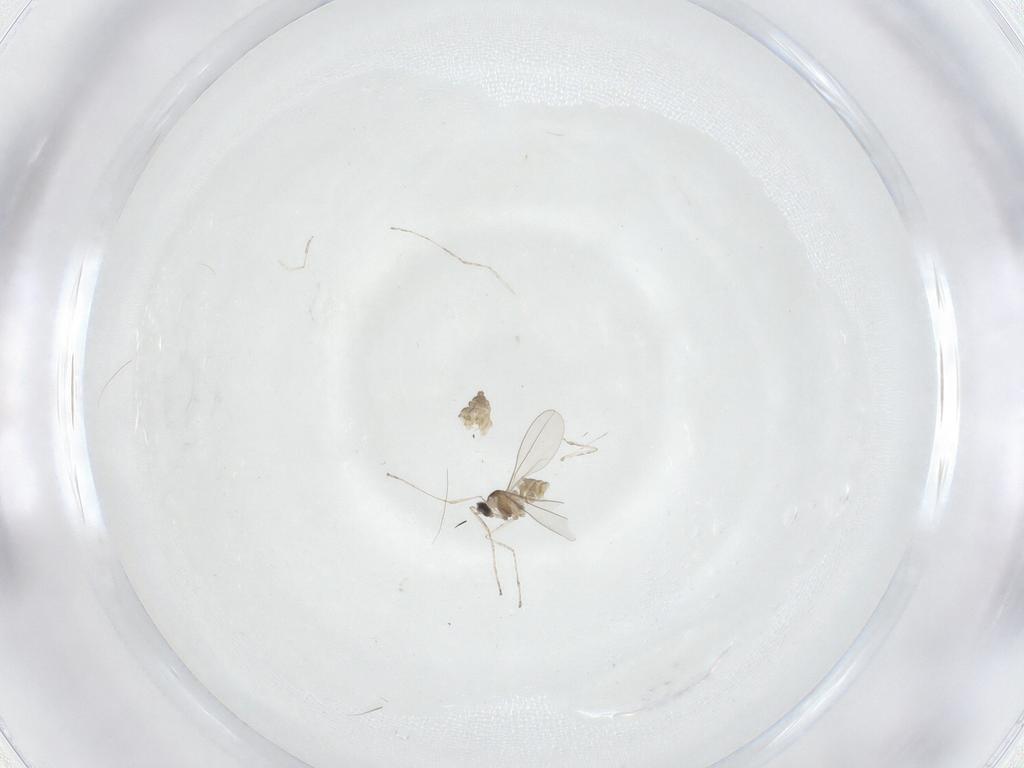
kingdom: Animalia
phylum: Arthropoda
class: Insecta
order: Diptera
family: Cecidomyiidae
